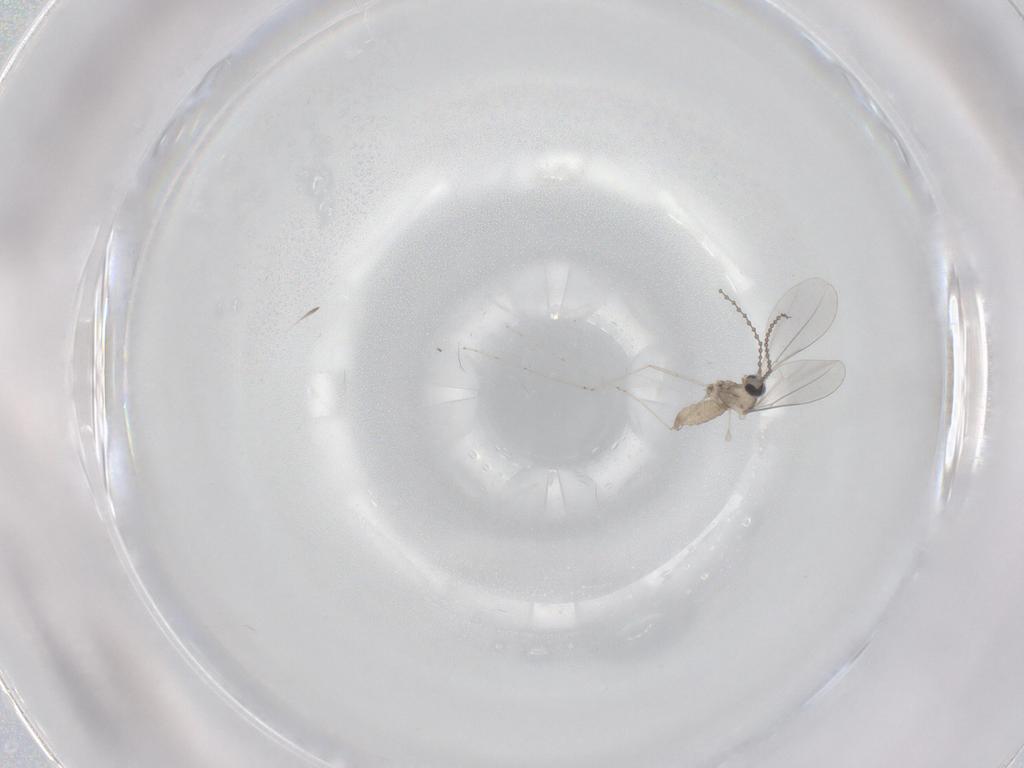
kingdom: Animalia
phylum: Arthropoda
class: Insecta
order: Diptera
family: Cecidomyiidae
